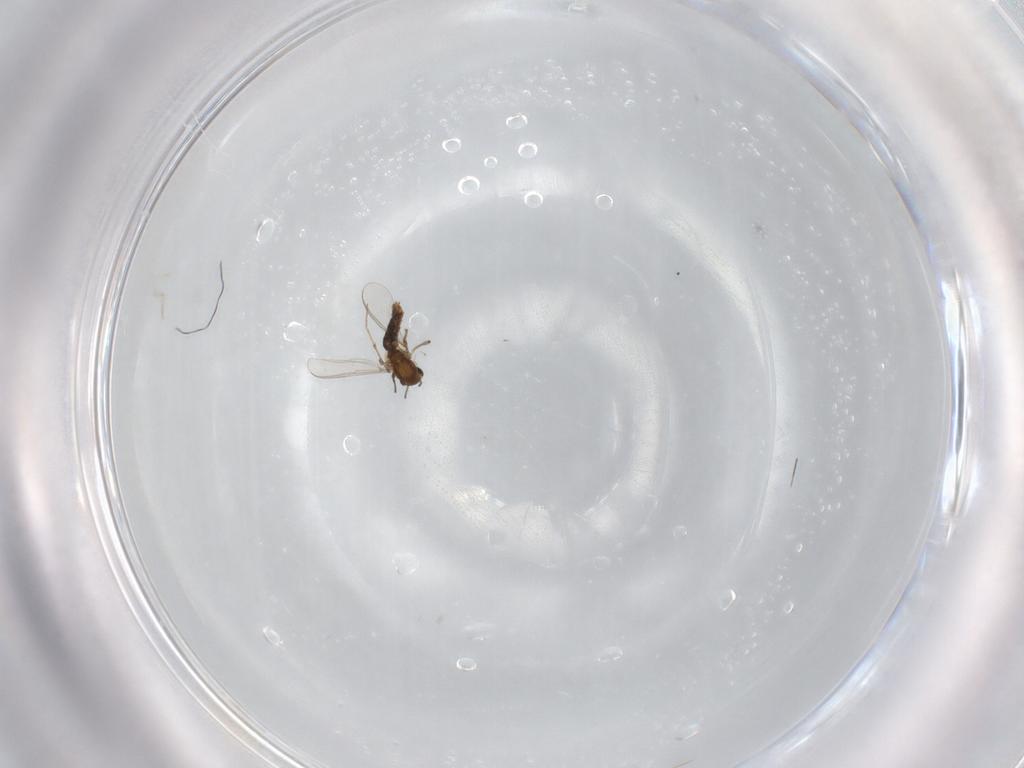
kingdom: Animalia
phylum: Arthropoda
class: Insecta
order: Diptera
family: Chironomidae
